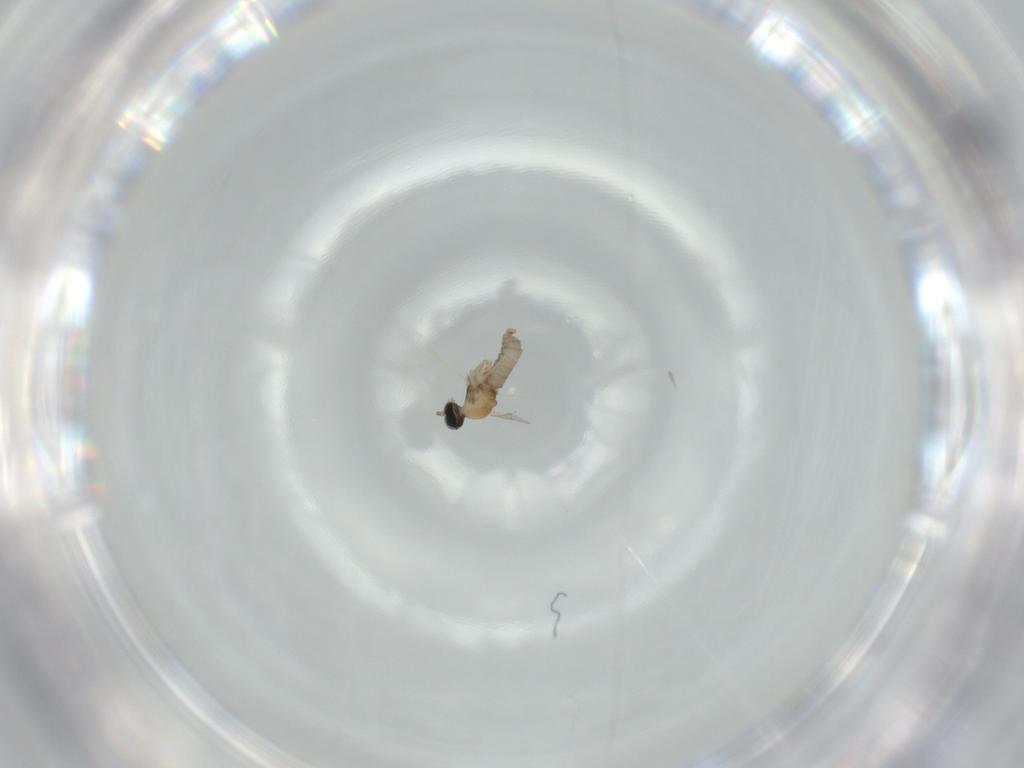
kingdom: Animalia
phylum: Arthropoda
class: Insecta
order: Diptera
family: Cecidomyiidae
